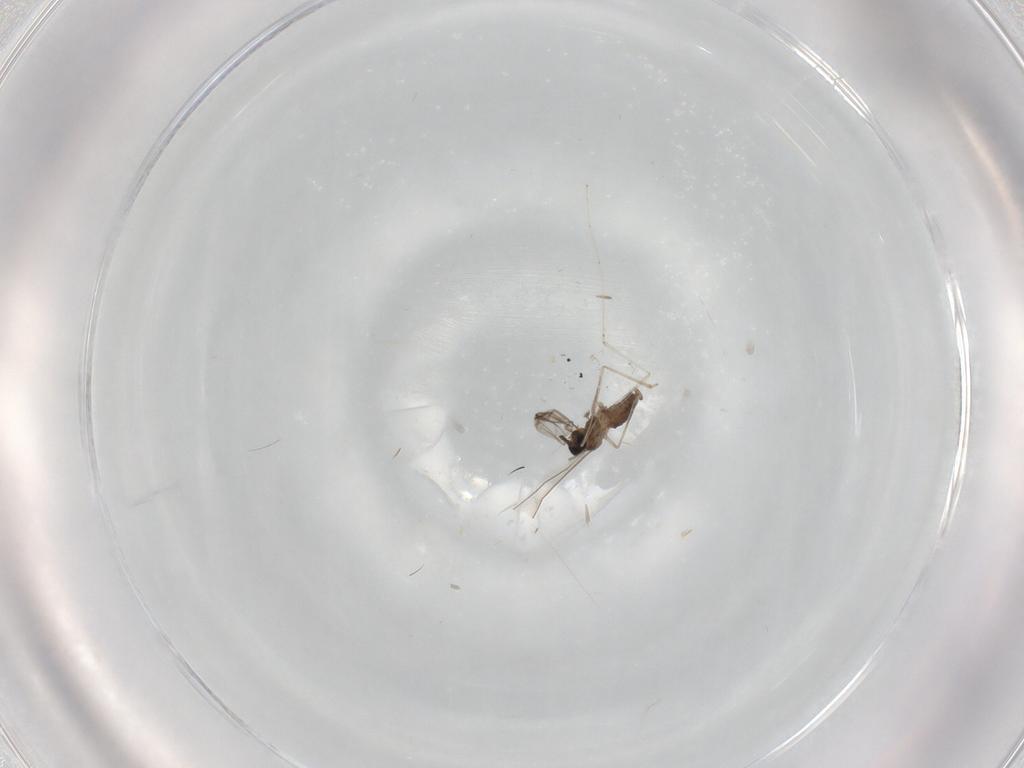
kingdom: Animalia
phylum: Arthropoda
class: Insecta
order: Diptera
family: Cecidomyiidae
